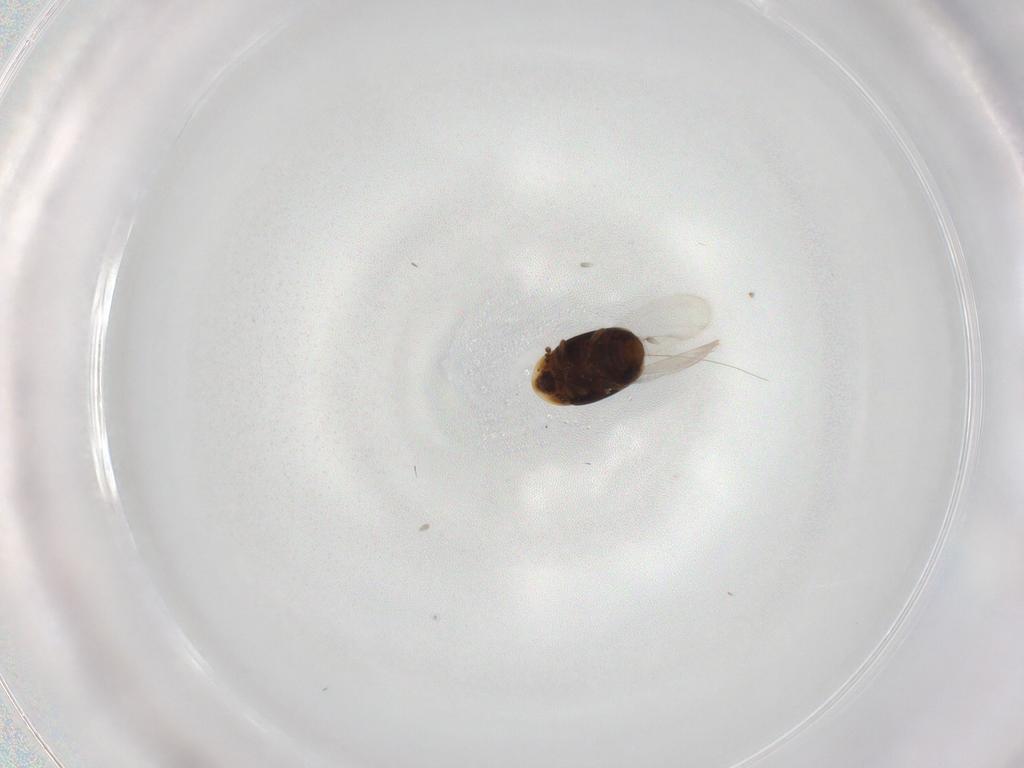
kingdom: Animalia
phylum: Arthropoda
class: Insecta
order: Coleoptera
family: Corylophidae
